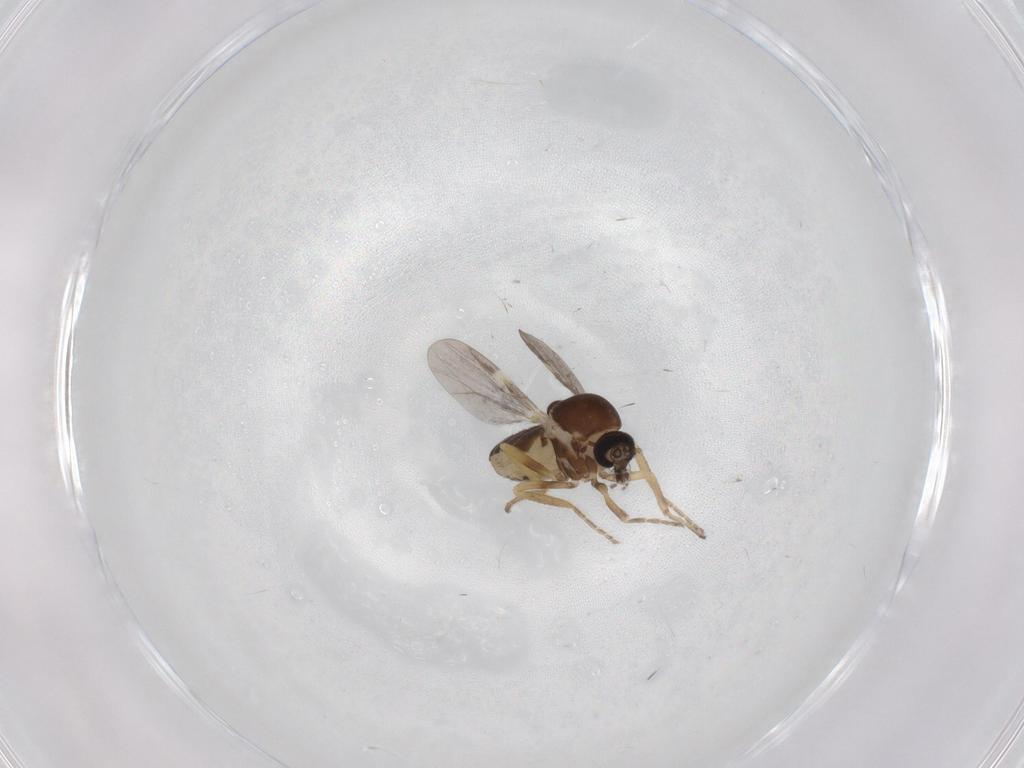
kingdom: Animalia
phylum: Arthropoda
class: Insecta
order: Diptera
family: Ceratopogonidae
